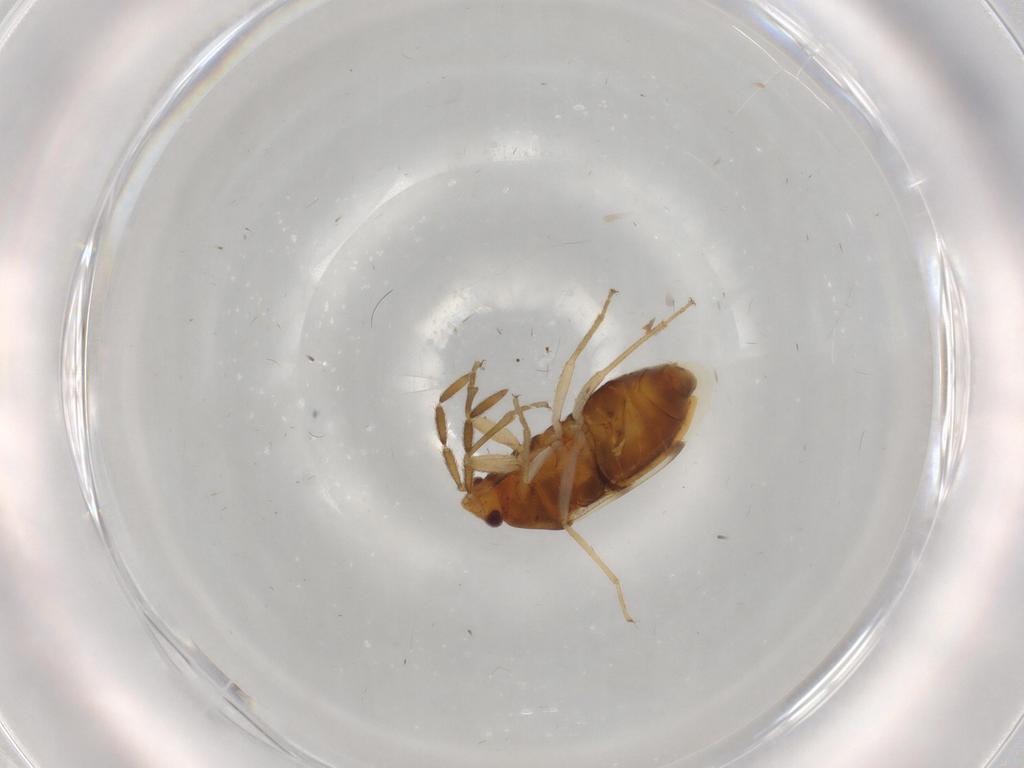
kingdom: Animalia
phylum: Arthropoda
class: Insecta
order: Hemiptera
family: Rhyparochromidae
